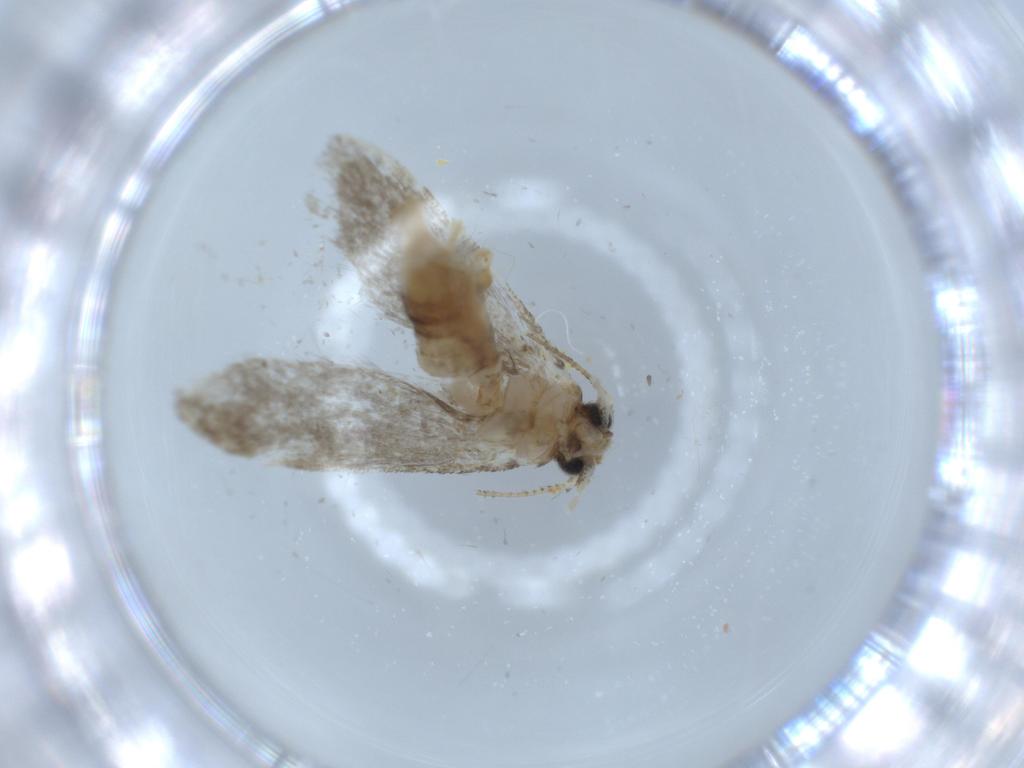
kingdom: Animalia
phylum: Arthropoda
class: Insecta
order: Lepidoptera
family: Tineidae
